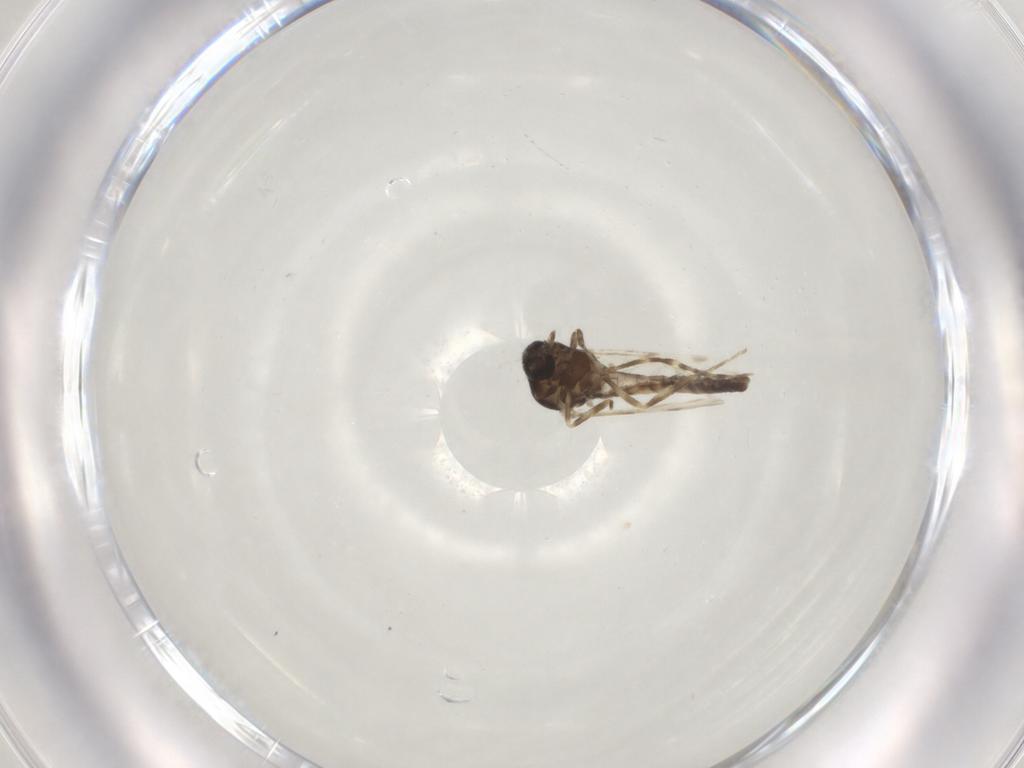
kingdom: Animalia
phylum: Arthropoda
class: Insecta
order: Diptera
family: Ceratopogonidae
